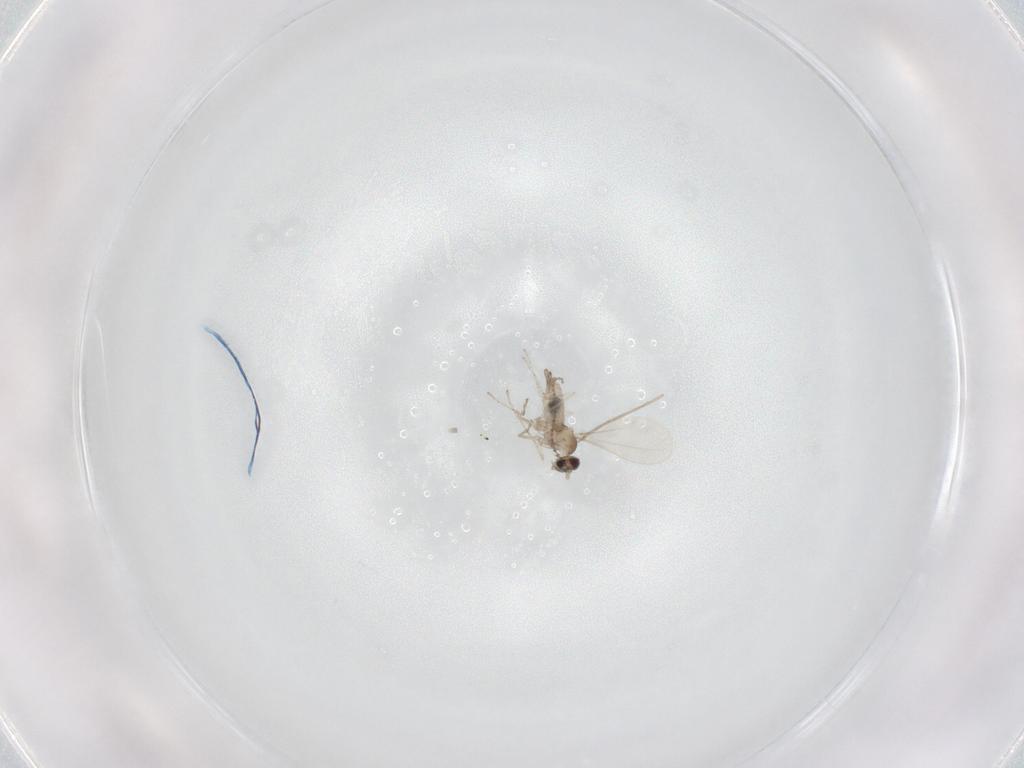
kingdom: Animalia
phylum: Arthropoda
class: Insecta
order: Diptera
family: Cecidomyiidae
